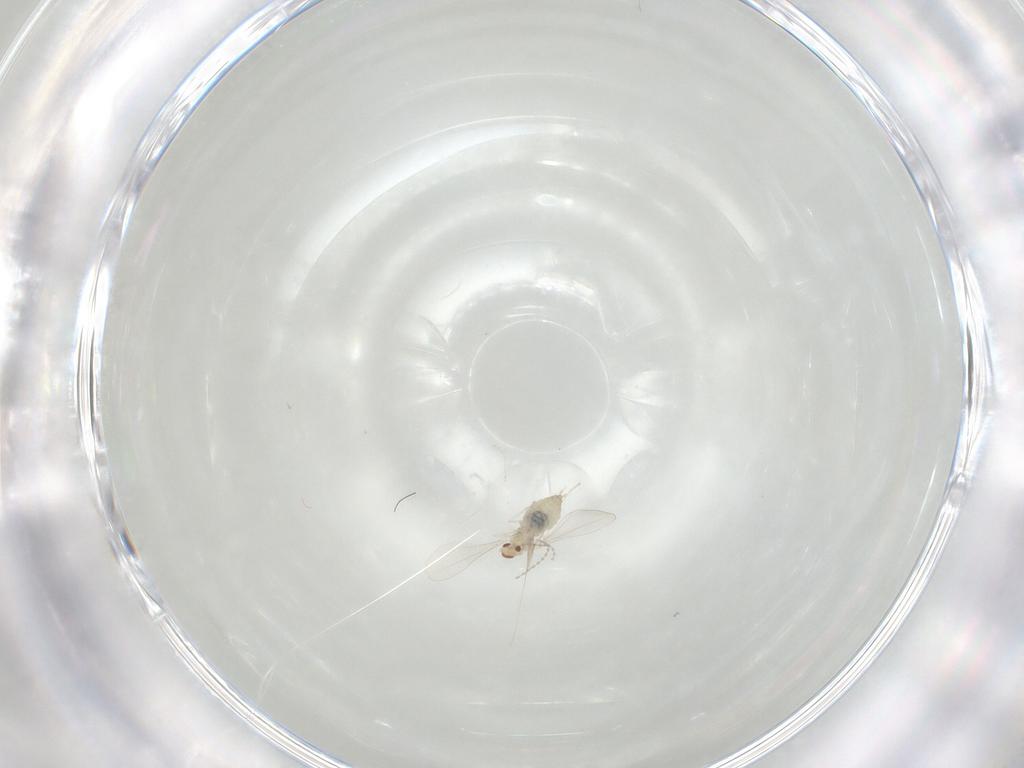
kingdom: Animalia
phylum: Arthropoda
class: Insecta
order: Diptera
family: Cecidomyiidae
